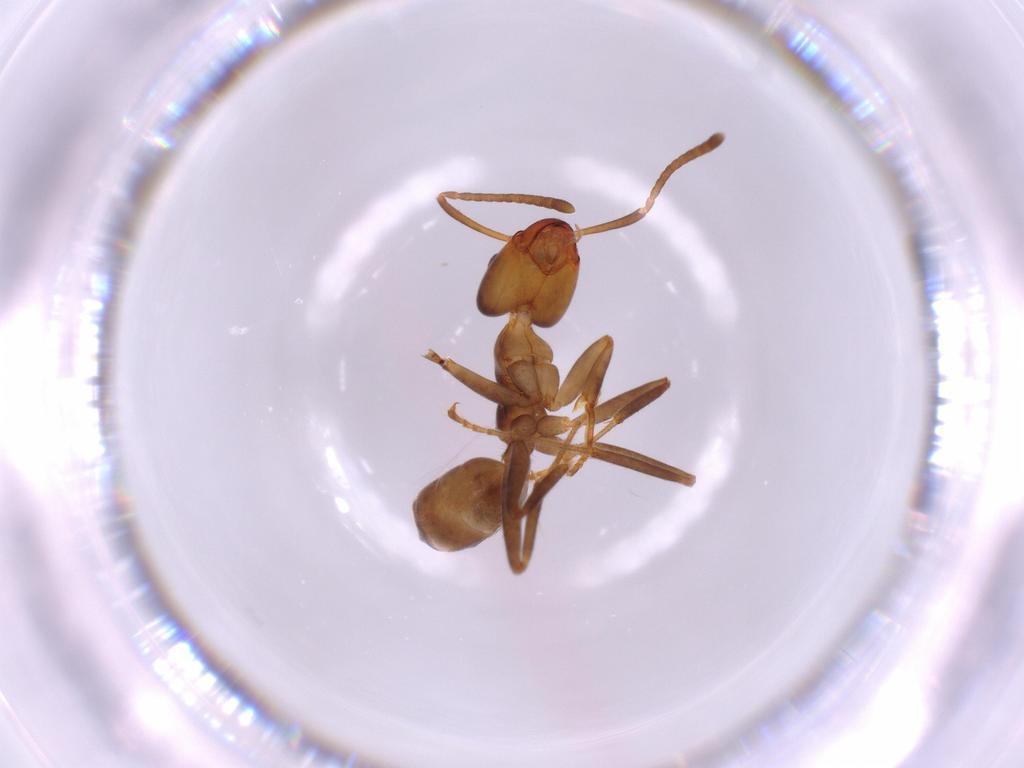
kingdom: Animalia
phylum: Arthropoda
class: Insecta
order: Hymenoptera
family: Formicidae
